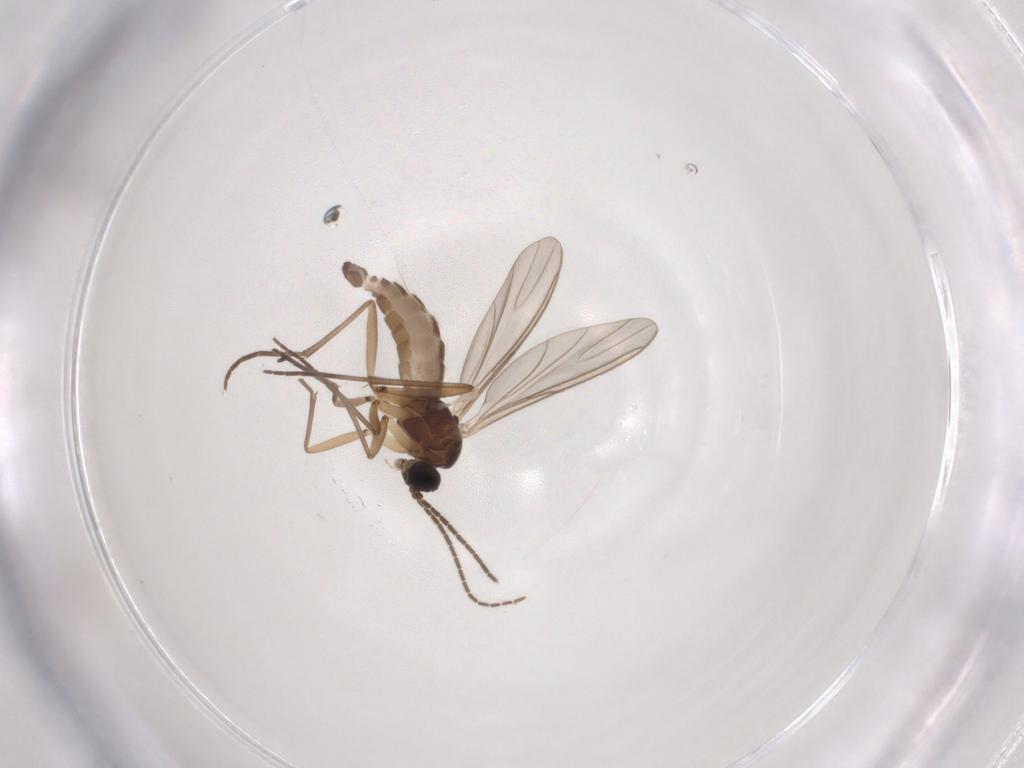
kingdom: Animalia
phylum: Arthropoda
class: Insecta
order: Diptera
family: Sciaridae
